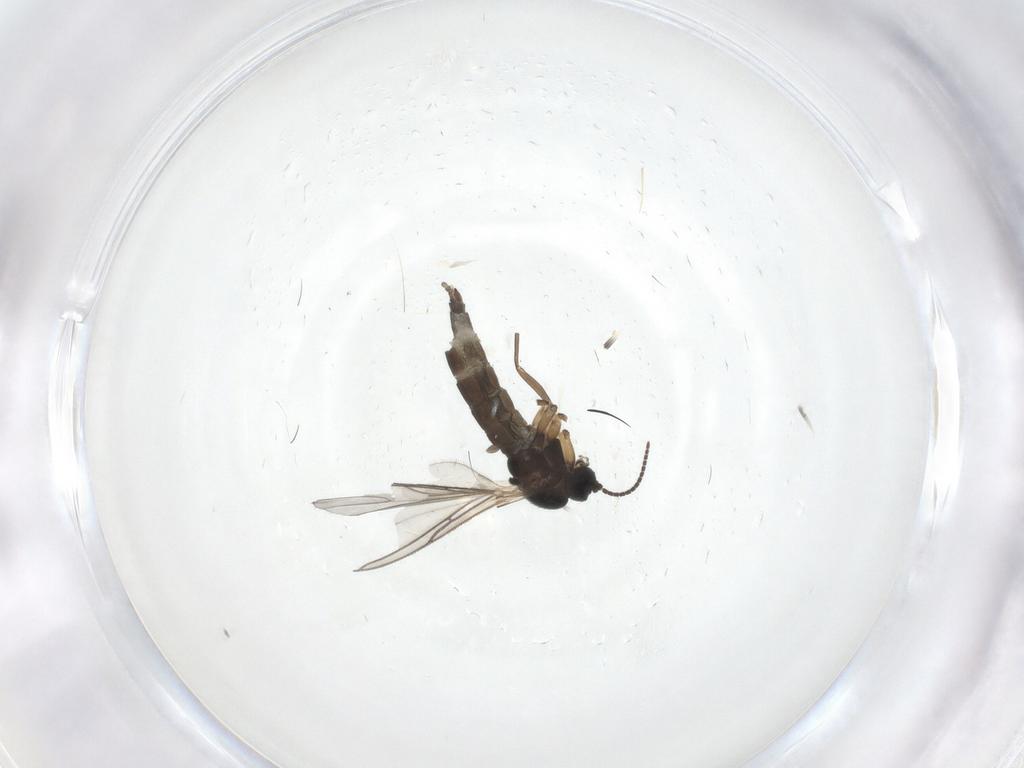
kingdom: Animalia
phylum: Arthropoda
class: Insecta
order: Diptera
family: Sciaridae
